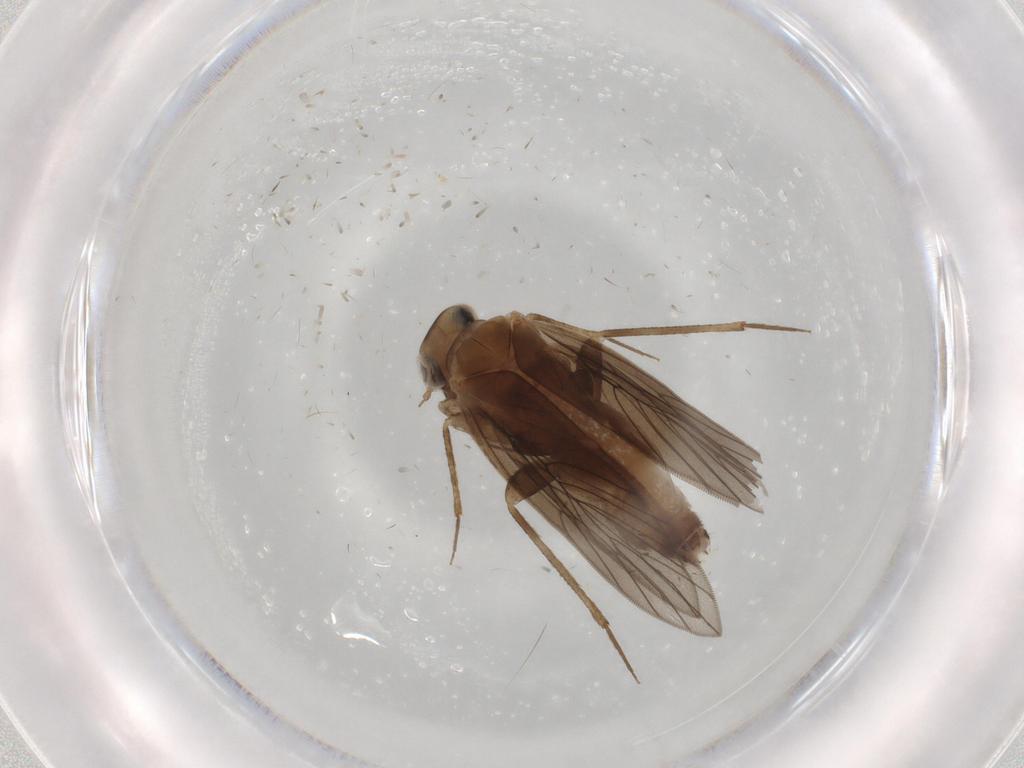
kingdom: Animalia
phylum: Arthropoda
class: Insecta
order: Psocodea
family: Lepidopsocidae
